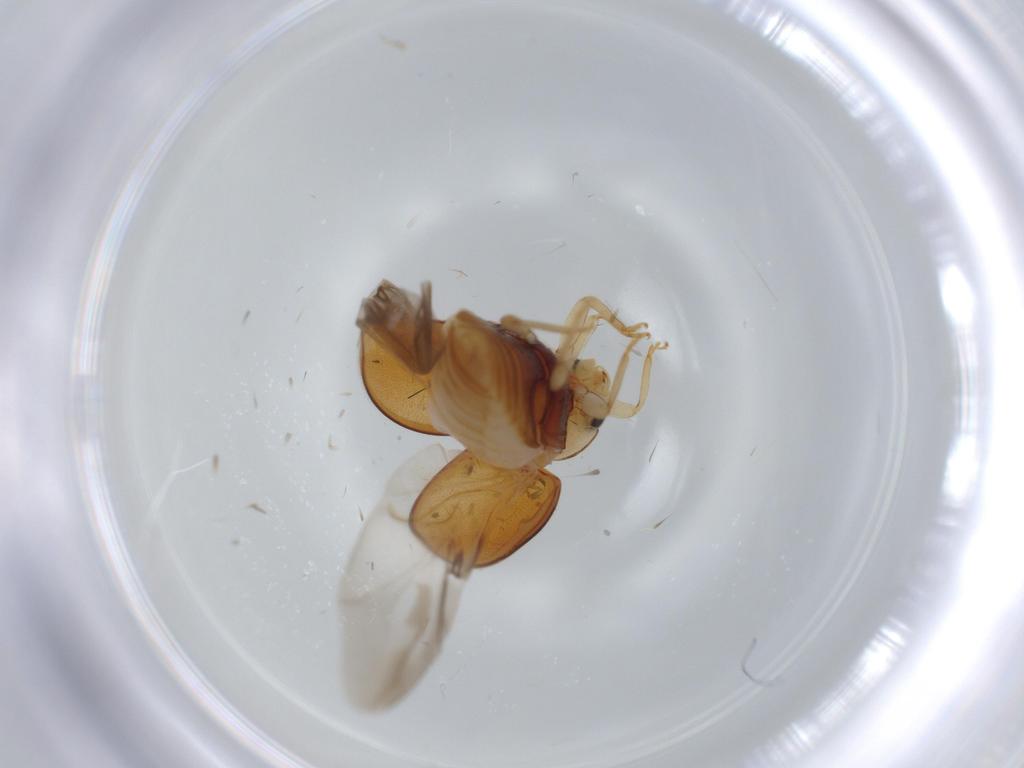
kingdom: Animalia
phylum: Arthropoda
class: Insecta
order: Coleoptera
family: Coccinellidae
